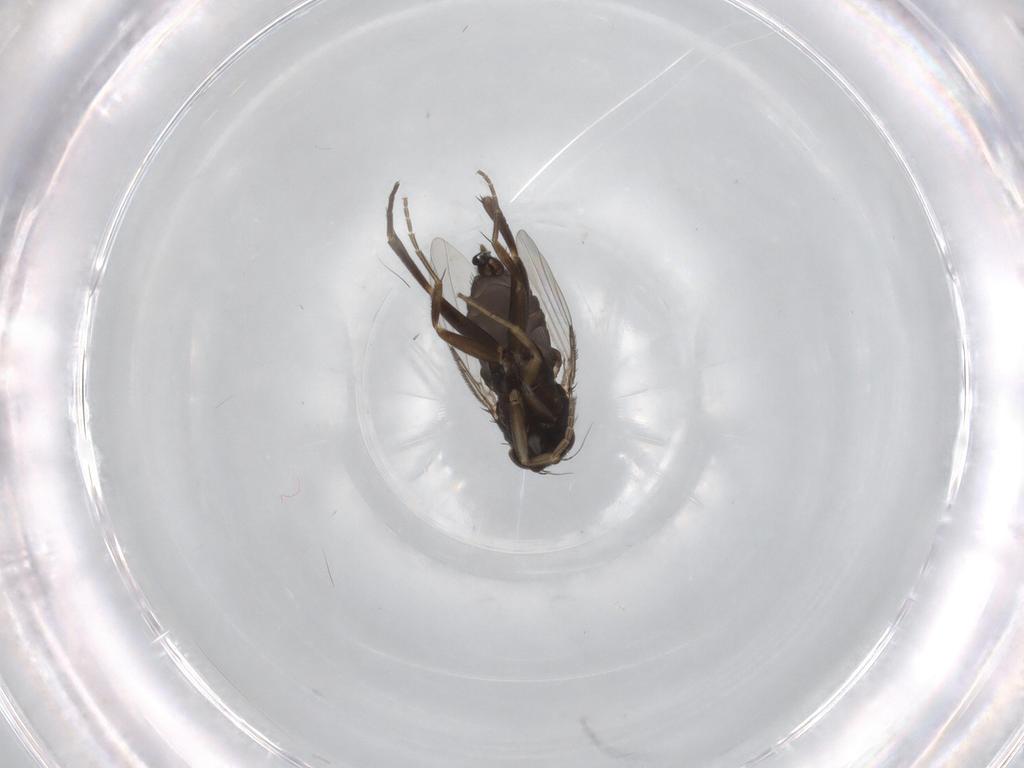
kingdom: Animalia
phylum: Arthropoda
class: Insecta
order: Diptera
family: Phoridae
